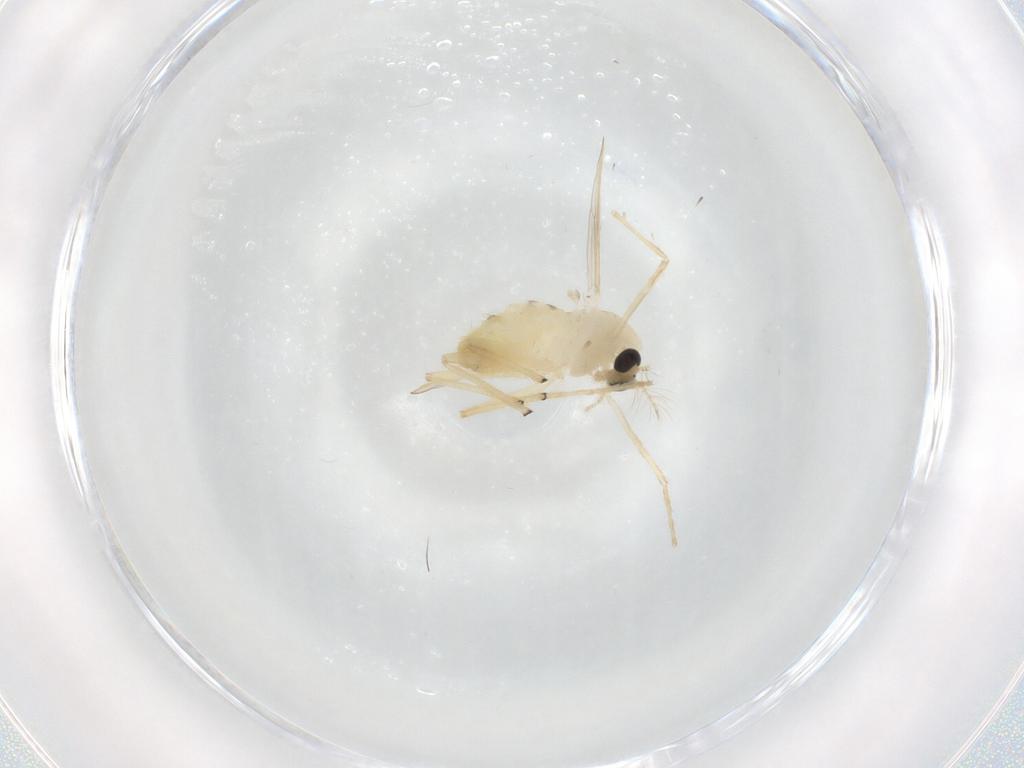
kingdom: Animalia
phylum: Arthropoda
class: Insecta
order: Diptera
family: Chironomidae
